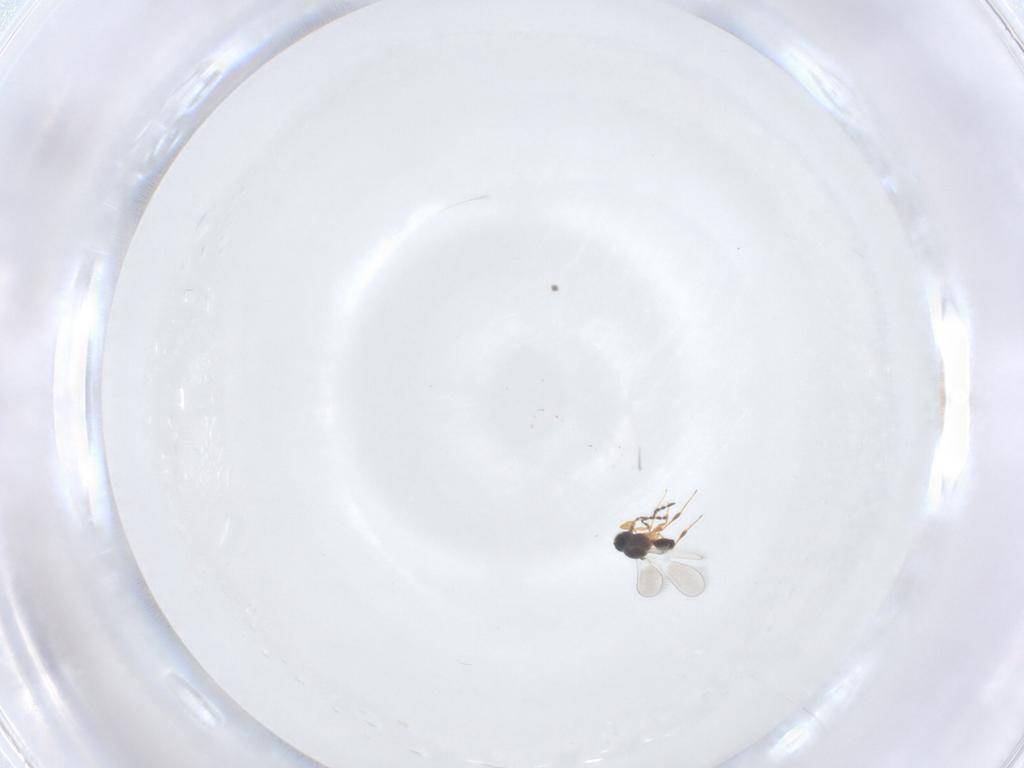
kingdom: Animalia
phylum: Arthropoda
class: Insecta
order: Hymenoptera
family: Platygastridae
